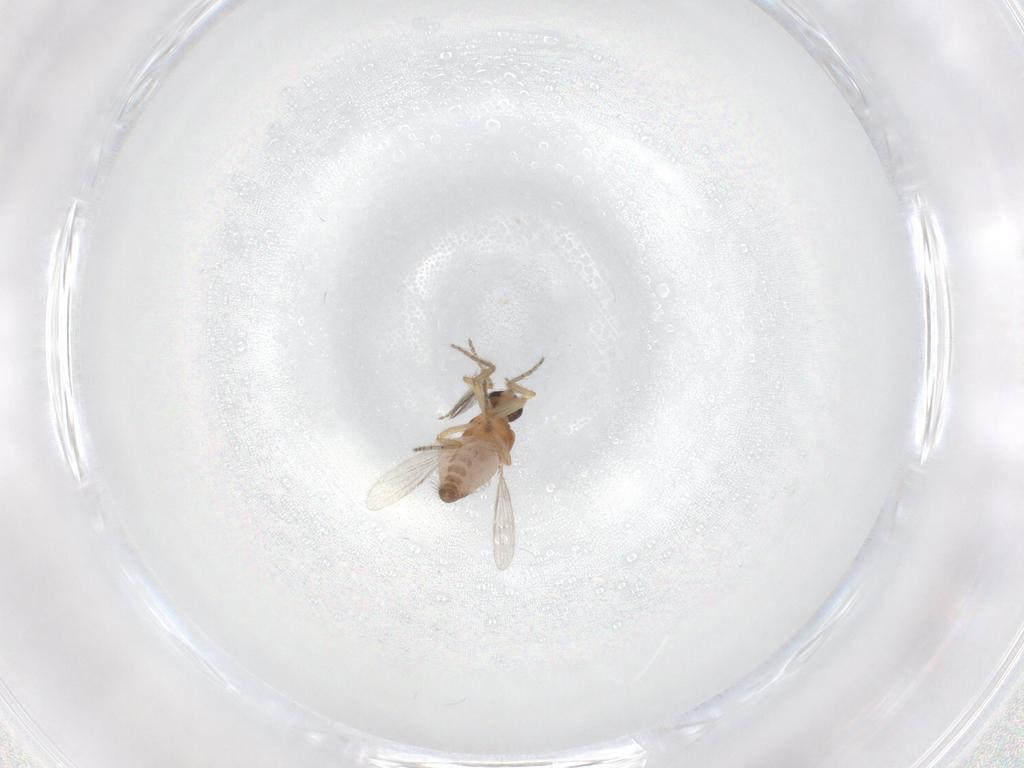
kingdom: Animalia
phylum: Arthropoda
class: Insecta
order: Diptera
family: Ceratopogonidae
